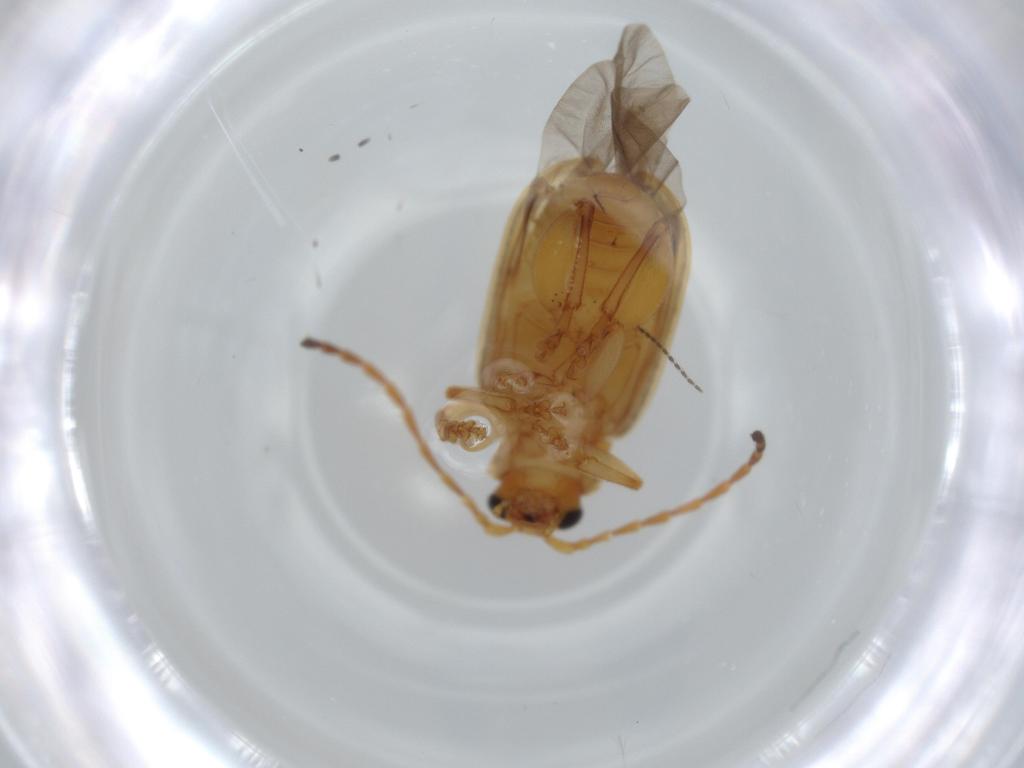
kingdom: Animalia
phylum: Arthropoda
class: Insecta
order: Coleoptera
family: Chrysomelidae
